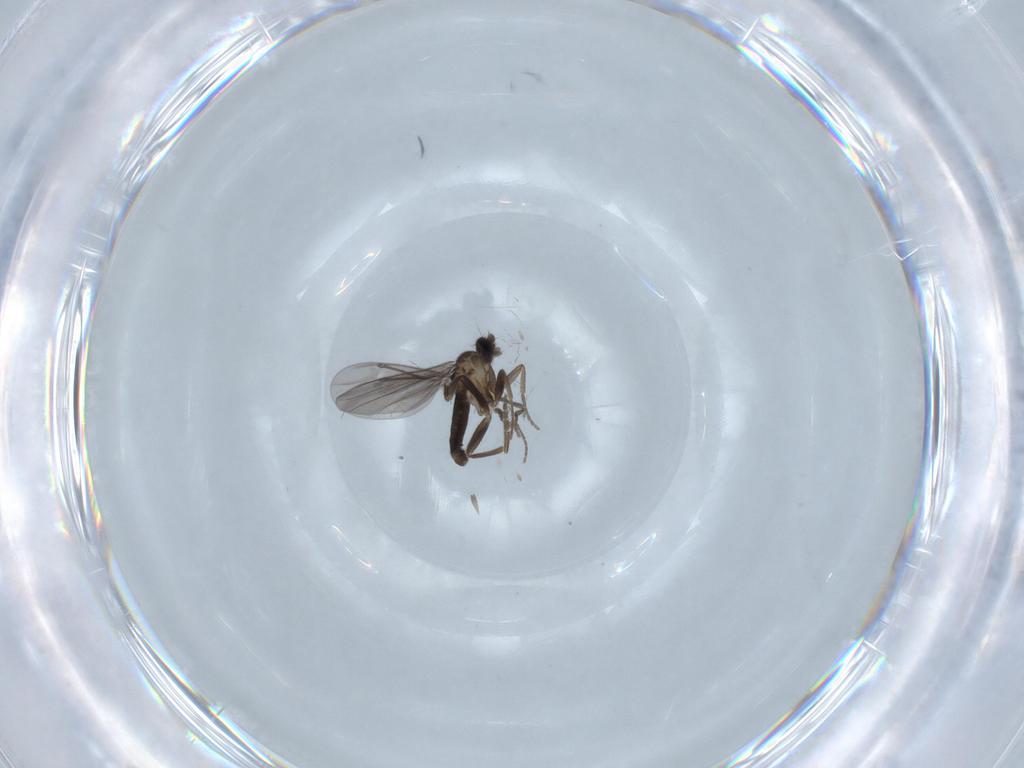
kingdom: Animalia
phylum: Arthropoda
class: Insecta
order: Diptera
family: Phoridae
